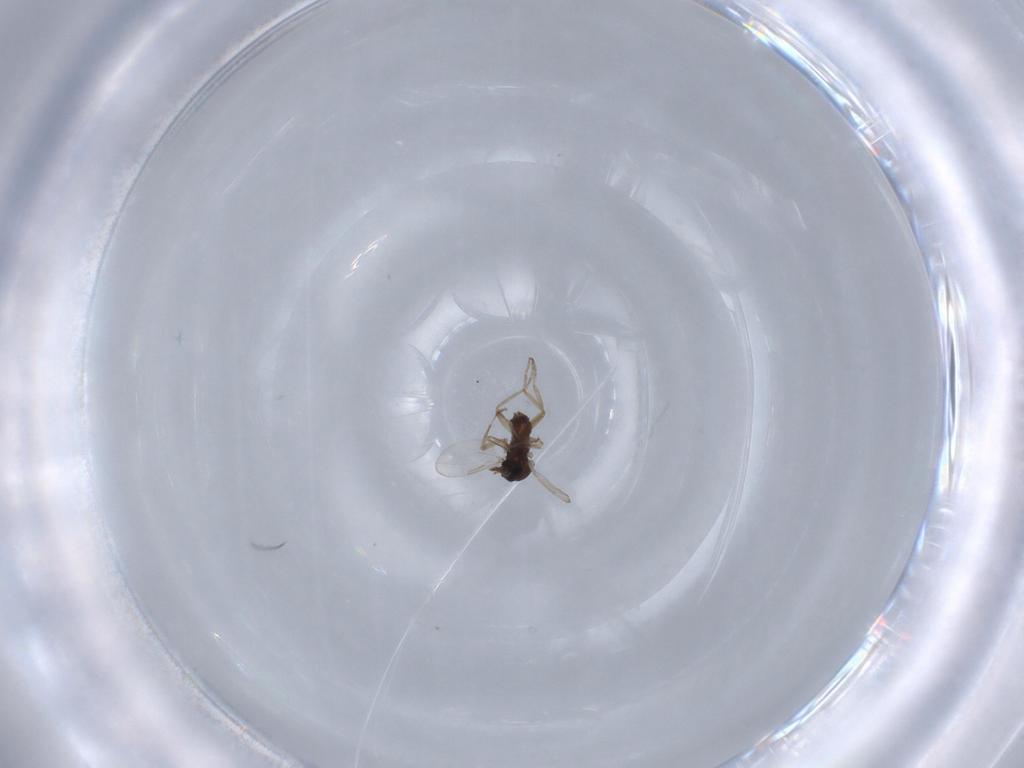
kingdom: Animalia
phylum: Arthropoda
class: Insecta
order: Diptera
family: Ceratopogonidae
